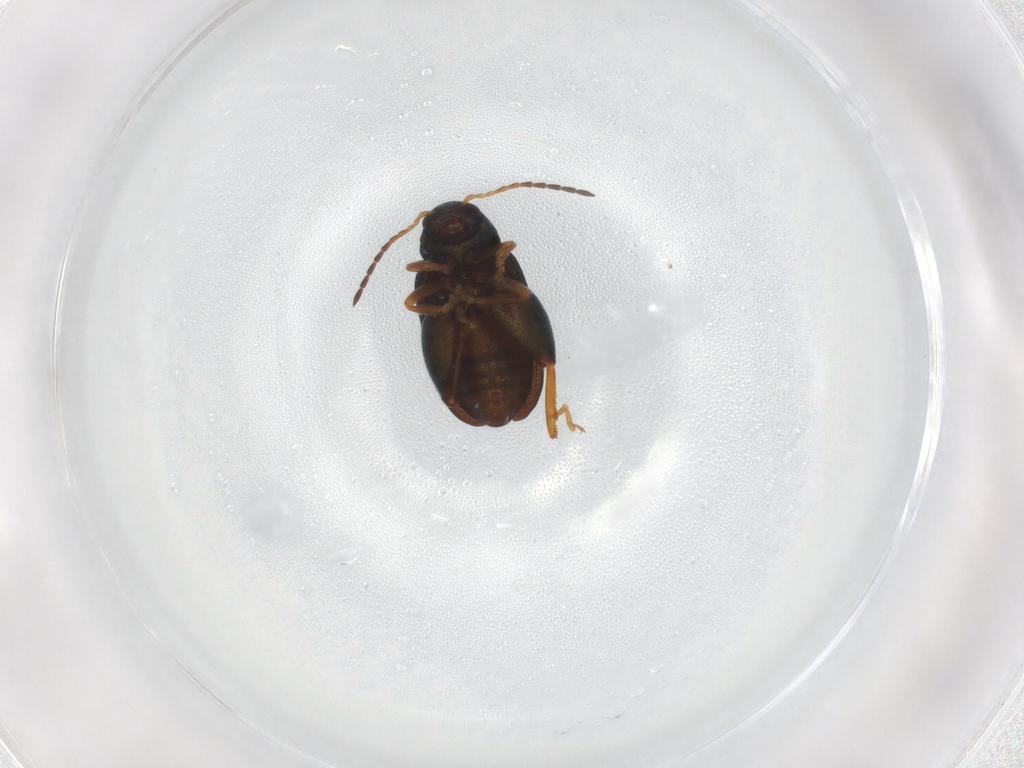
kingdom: Animalia
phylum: Arthropoda
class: Insecta
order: Coleoptera
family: Chrysomelidae
